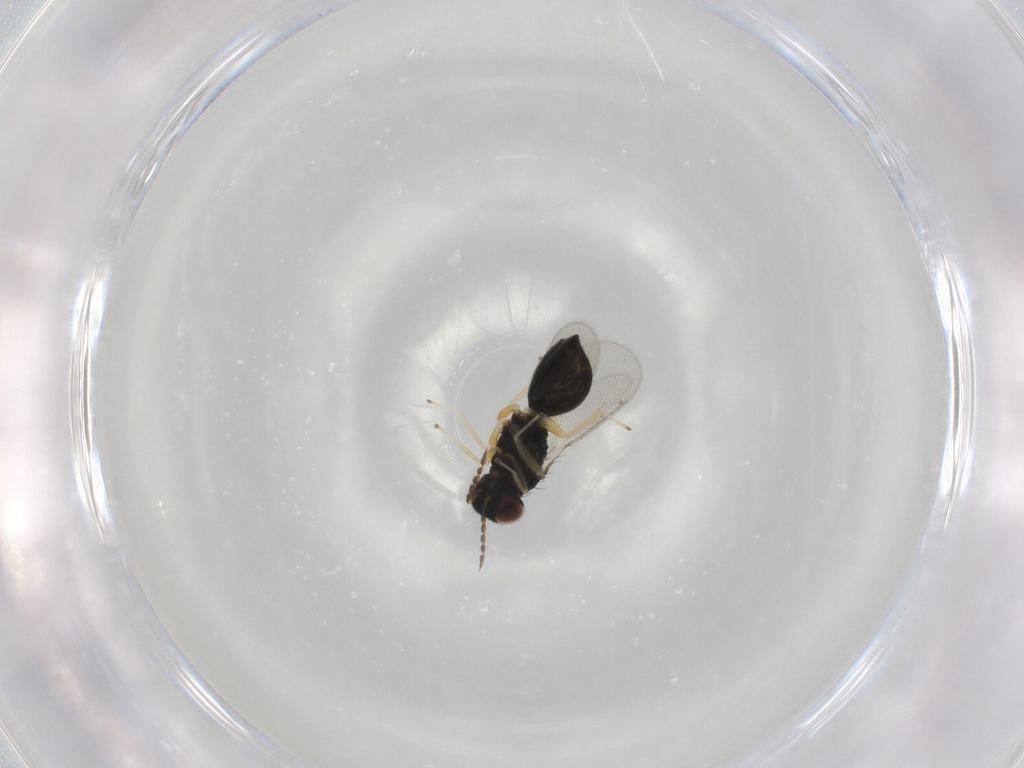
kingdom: Animalia
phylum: Arthropoda
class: Insecta
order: Hymenoptera
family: Eulophidae
